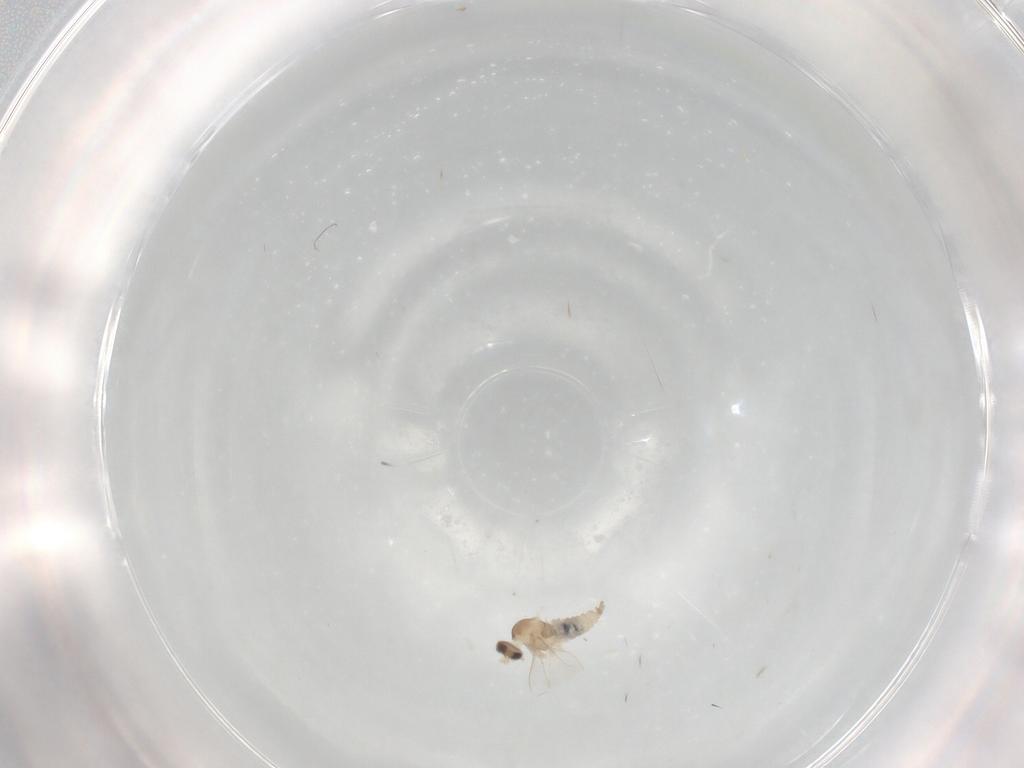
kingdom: Animalia
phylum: Arthropoda
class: Insecta
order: Diptera
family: Cecidomyiidae
